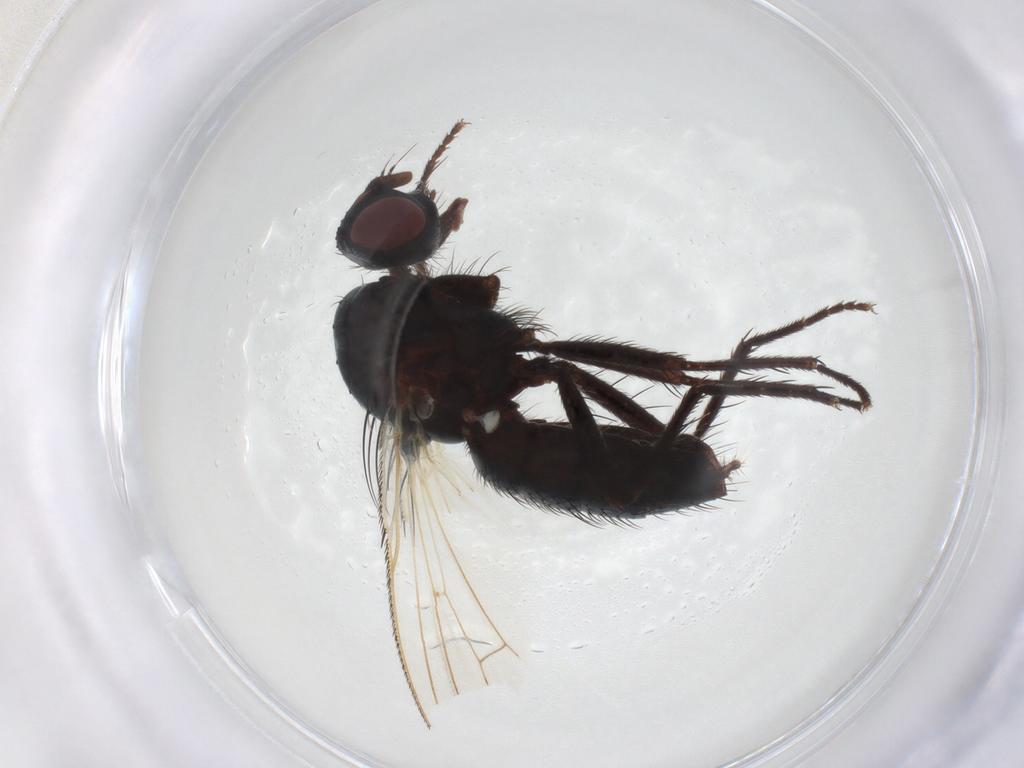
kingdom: Animalia
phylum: Arthropoda
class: Insecta
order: Diptera
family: Anthomyiidae
